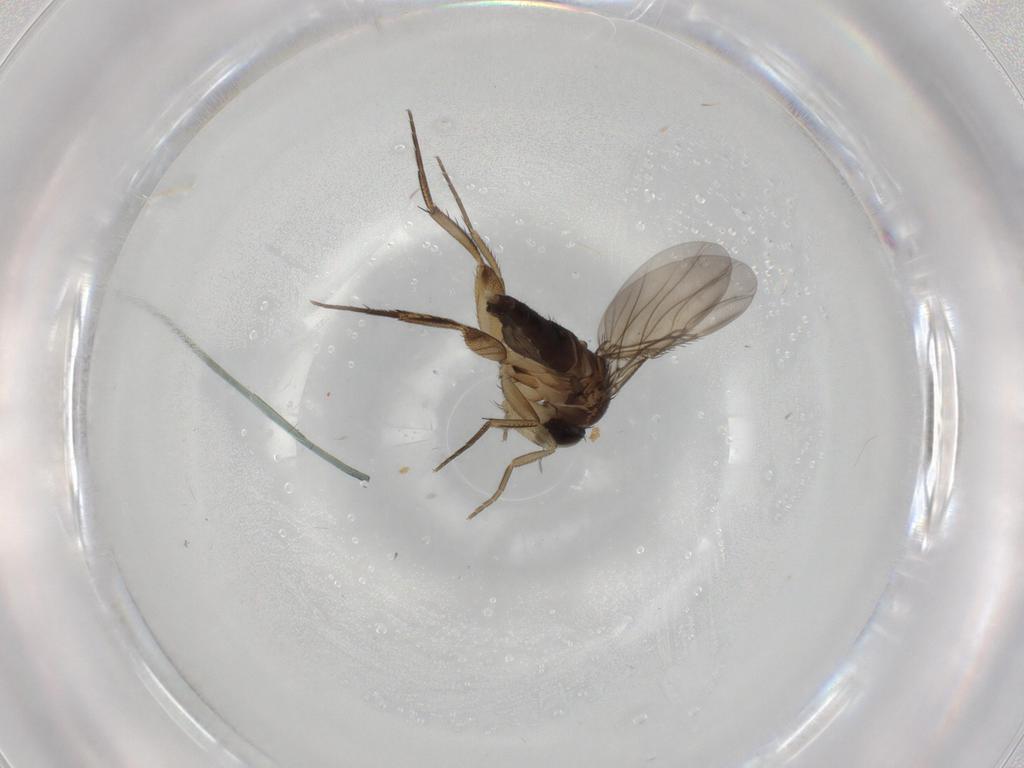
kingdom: Animalia
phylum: Arthropoda
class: Insecta
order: Diptera
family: Phoridae
